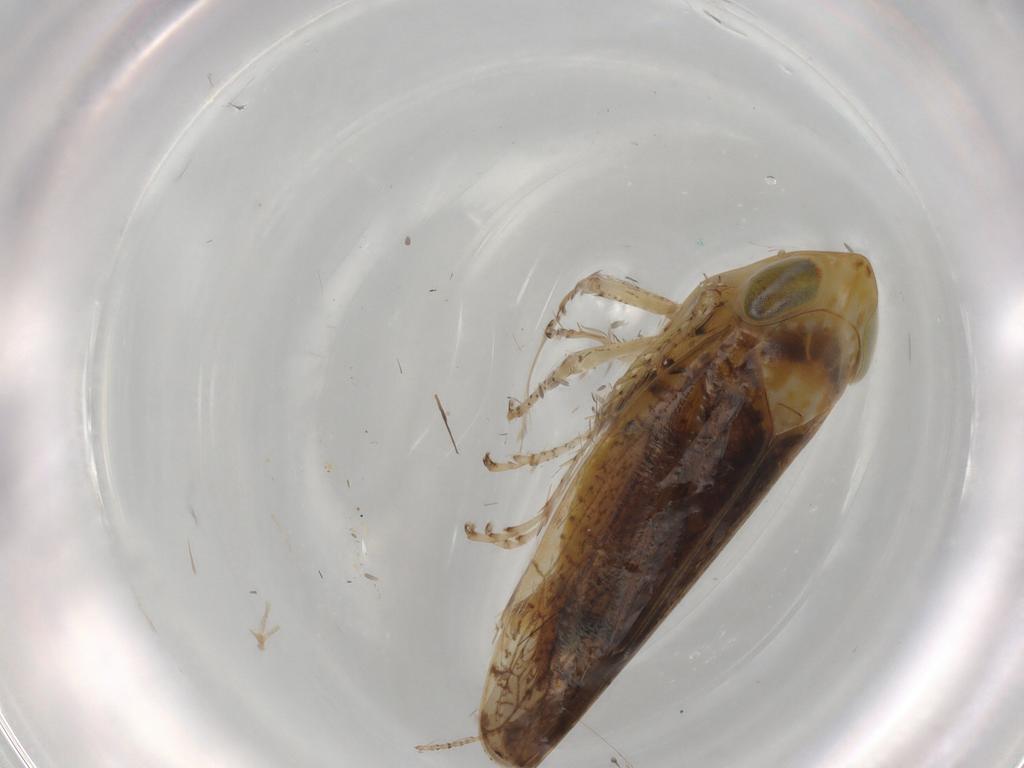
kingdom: Animalia
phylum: Arthropoda
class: Insecta
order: Hemiptera
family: Cicadellidae
